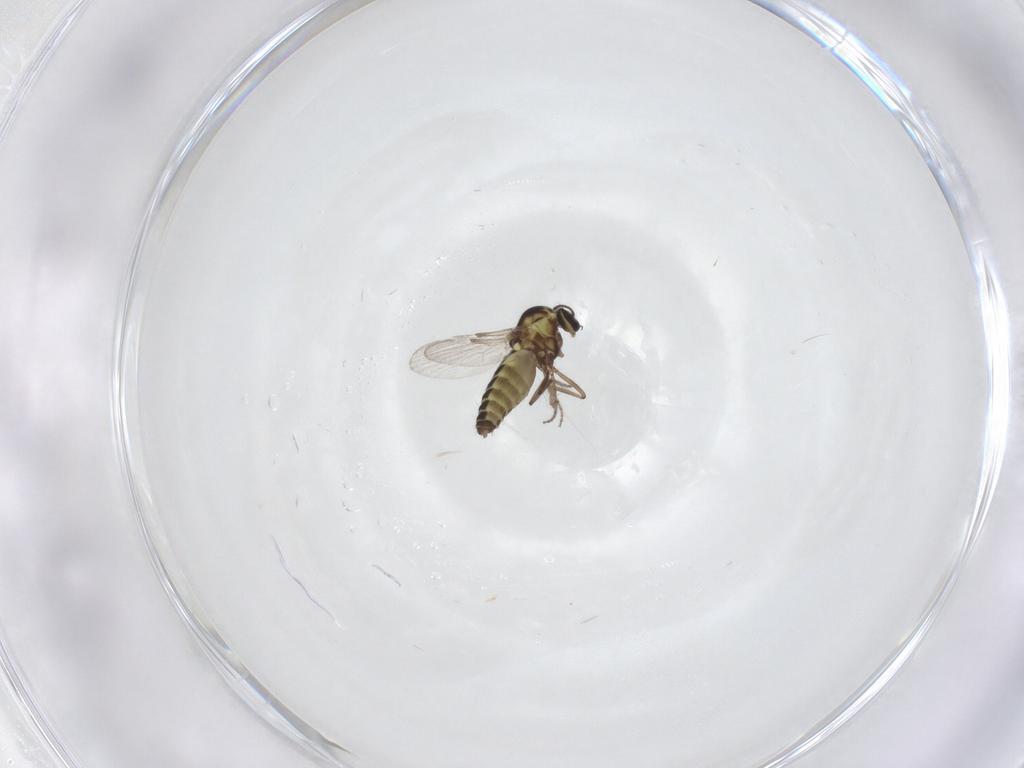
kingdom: Animalia
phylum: Arthropoda
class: Insecta
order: Diptera
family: Ceratopogonidae
